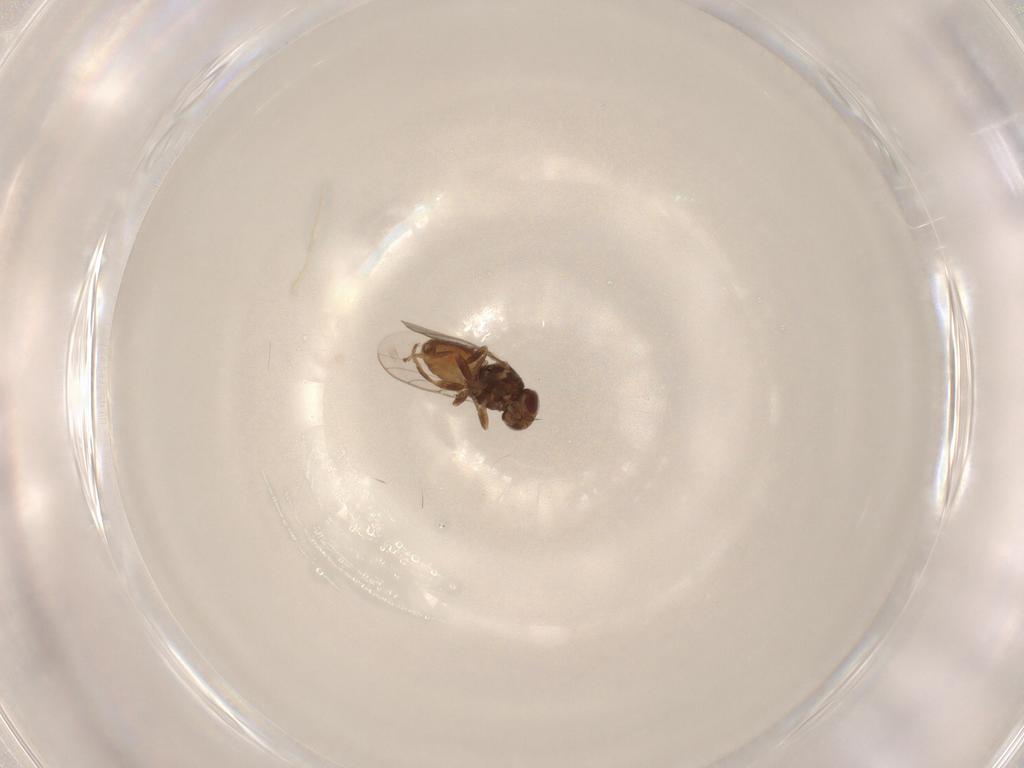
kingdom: Animalia
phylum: Arthropoda
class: Insecta
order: Diptera
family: Chloropidae
